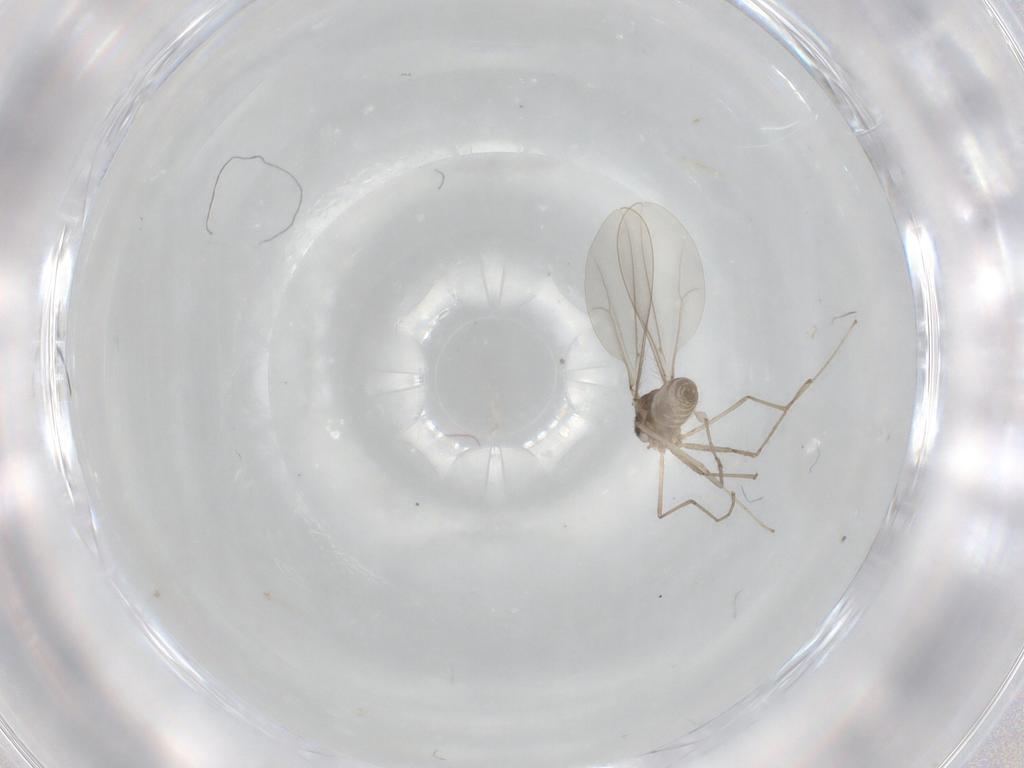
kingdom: Animalia
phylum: Arthropoda
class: Insecta
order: Diptera
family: Cecidomyiidae
